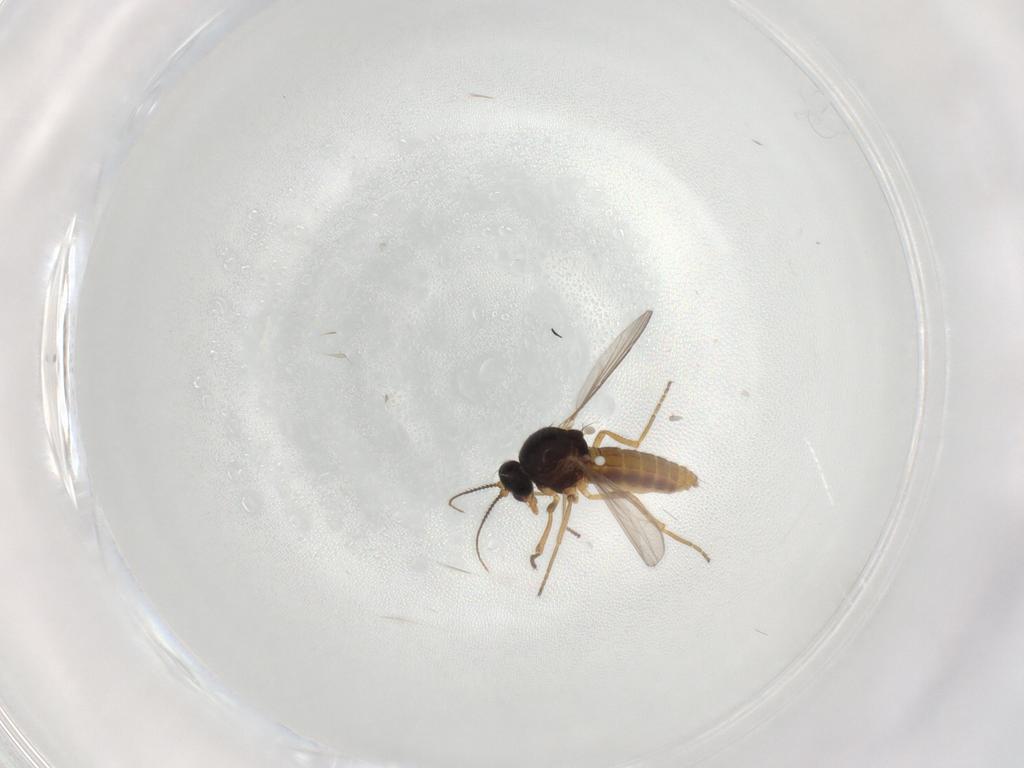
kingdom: Animalia
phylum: Arthropoda
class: Insecta
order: Diptera
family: Ceratopogonidae
